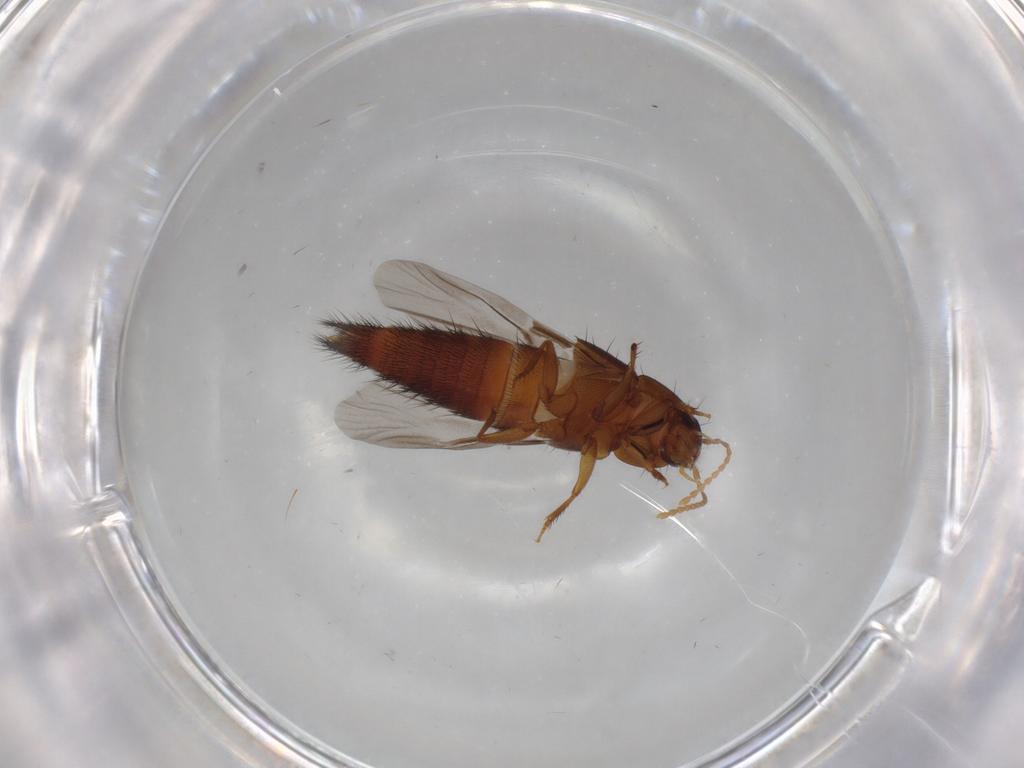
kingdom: Animalia
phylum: Arthropoda
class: Insecta
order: Coleoptera
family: Staphylinidae
